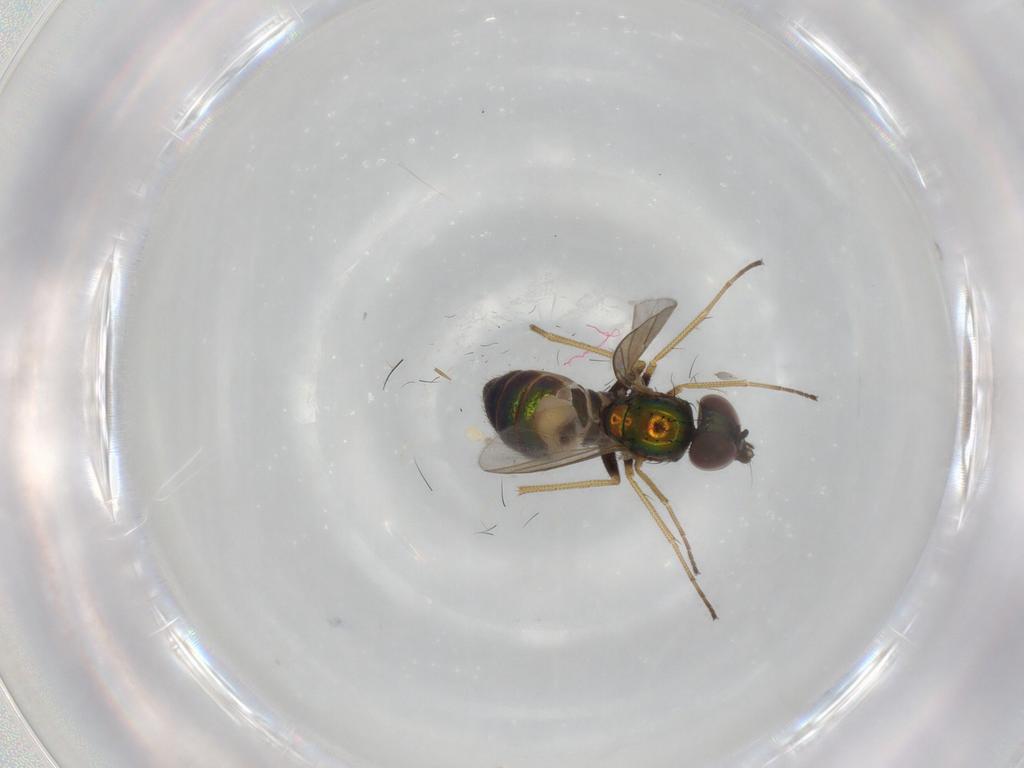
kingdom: Animalia
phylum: Arthropoda
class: Insecta
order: Diptera
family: Dolichopodidae
